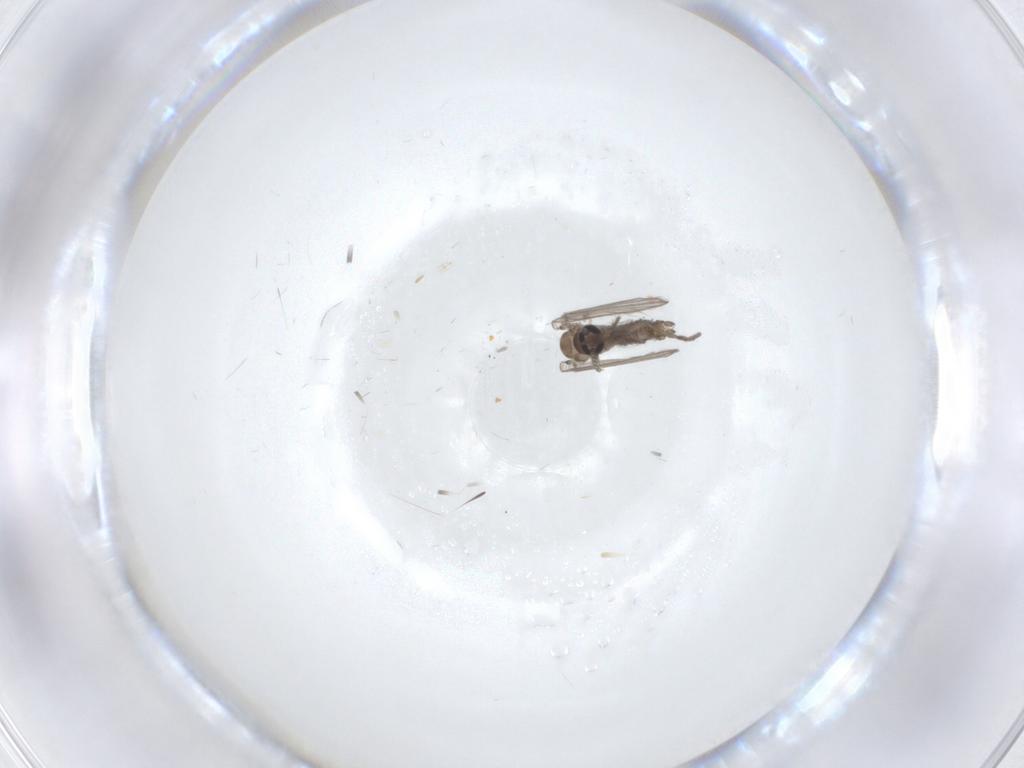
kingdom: Animalia
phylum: Arthropoda
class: Insecta
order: Diptera
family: Psychodidae
